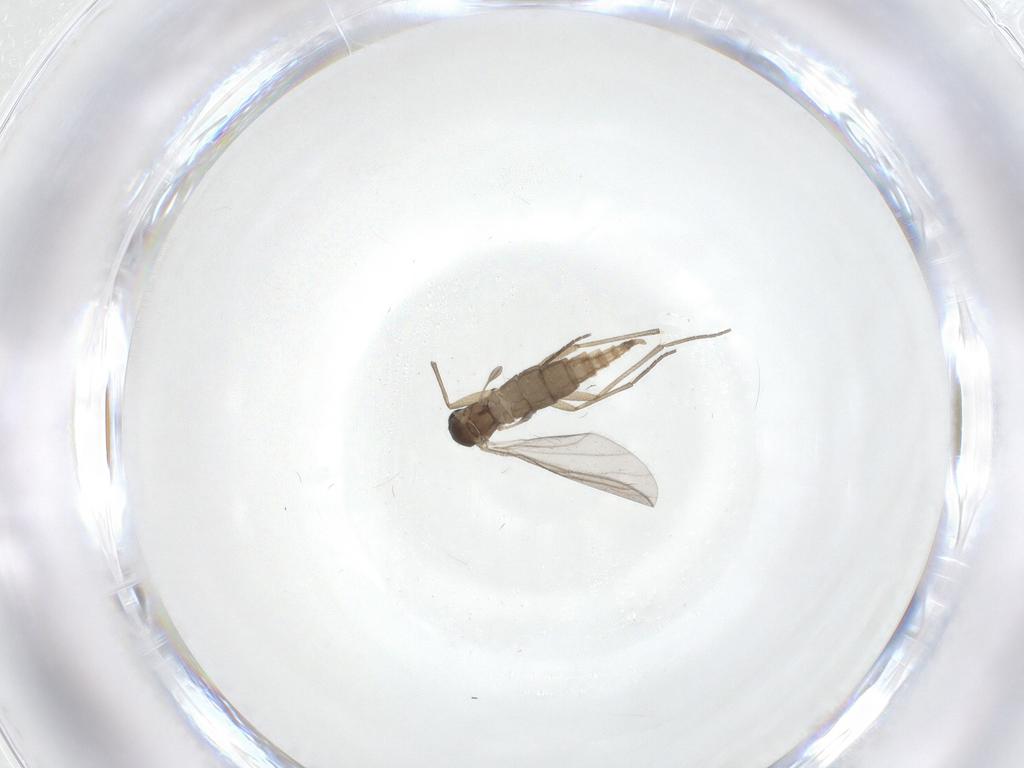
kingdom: Animalia
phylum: Arthropoda
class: Insecta
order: Diptera
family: Sciaridae
